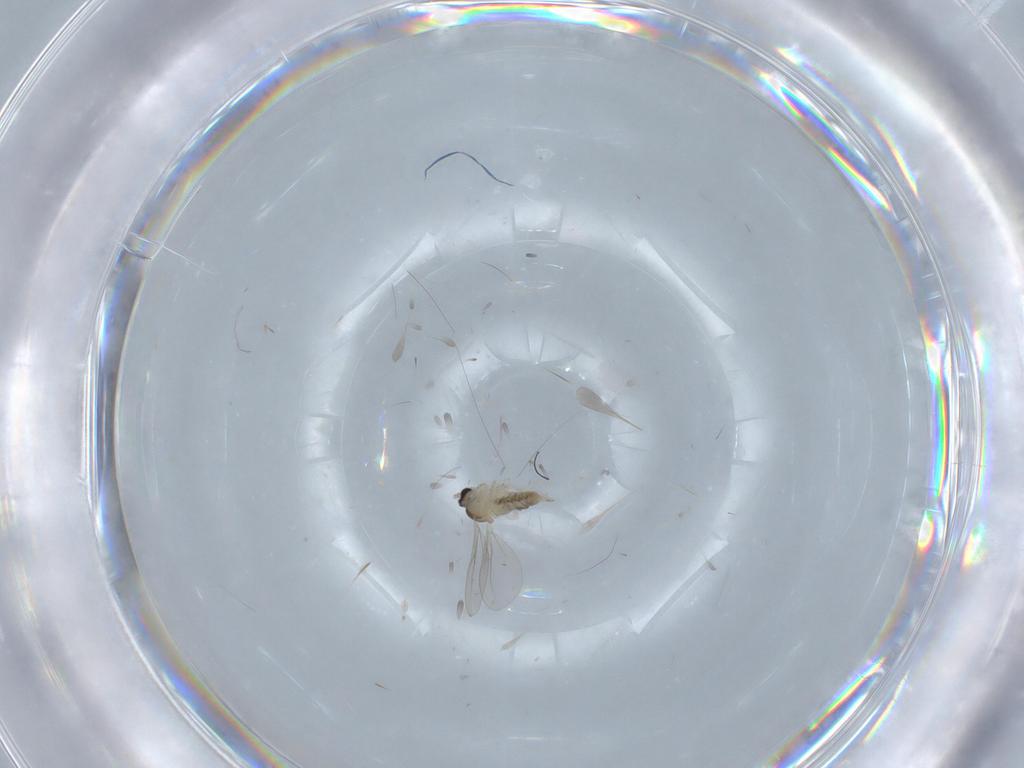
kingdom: Animalia
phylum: Arthropoda
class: Insecta
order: Diptera
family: Cecidomyiidae
